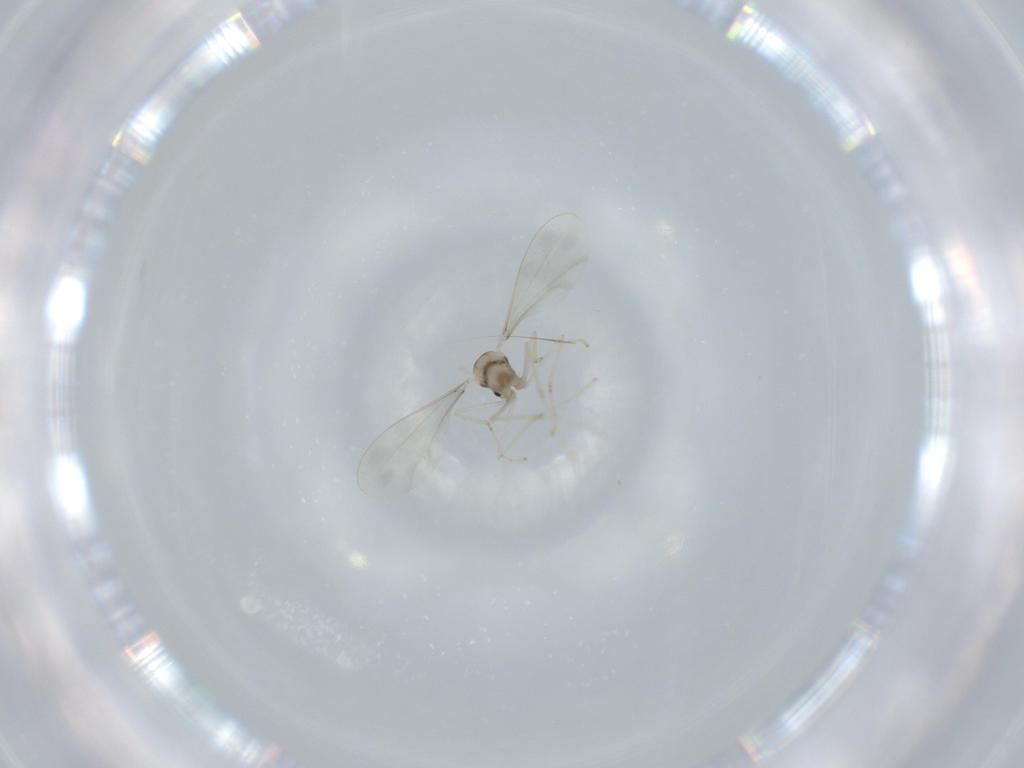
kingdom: Animalia
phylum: Arthropoda
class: Insecta
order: Diptera
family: Cecidomyiidae
